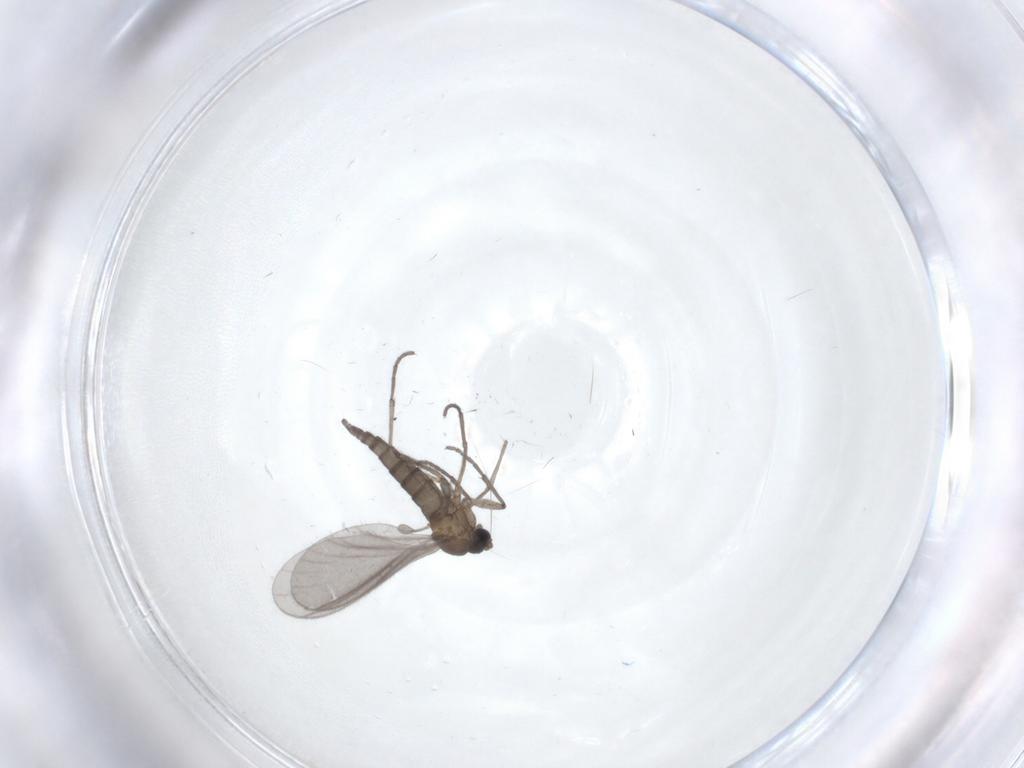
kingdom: Animalia
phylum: Arthropoda
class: Insecta
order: Diptera
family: Sciaridae
